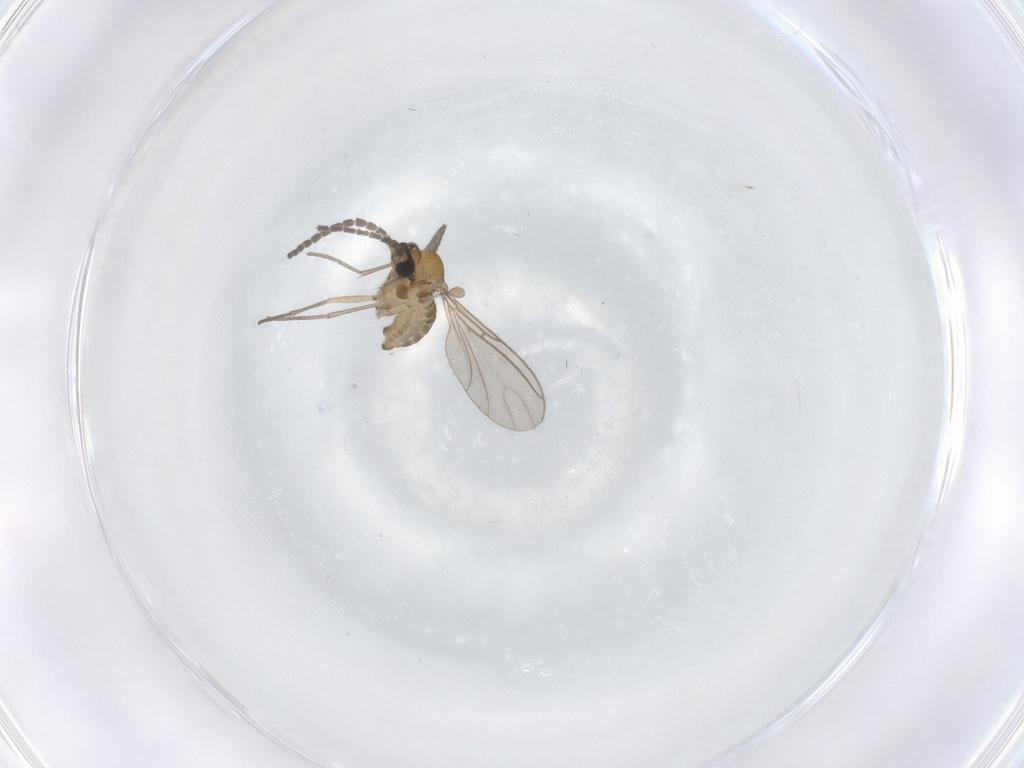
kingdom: Animalia
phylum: Arthropoda
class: Insecta
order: Diptera
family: Sciaridae
